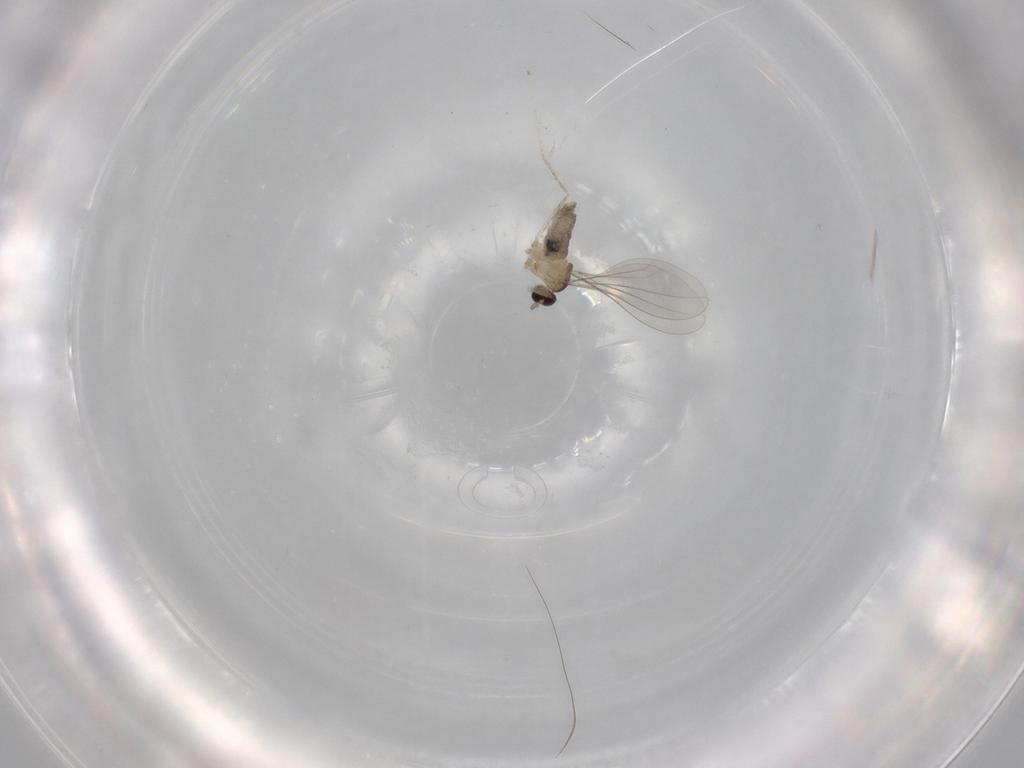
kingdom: Animalia
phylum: Arthropoda
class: Insecta
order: Diptera
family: Cecidomyiidae
